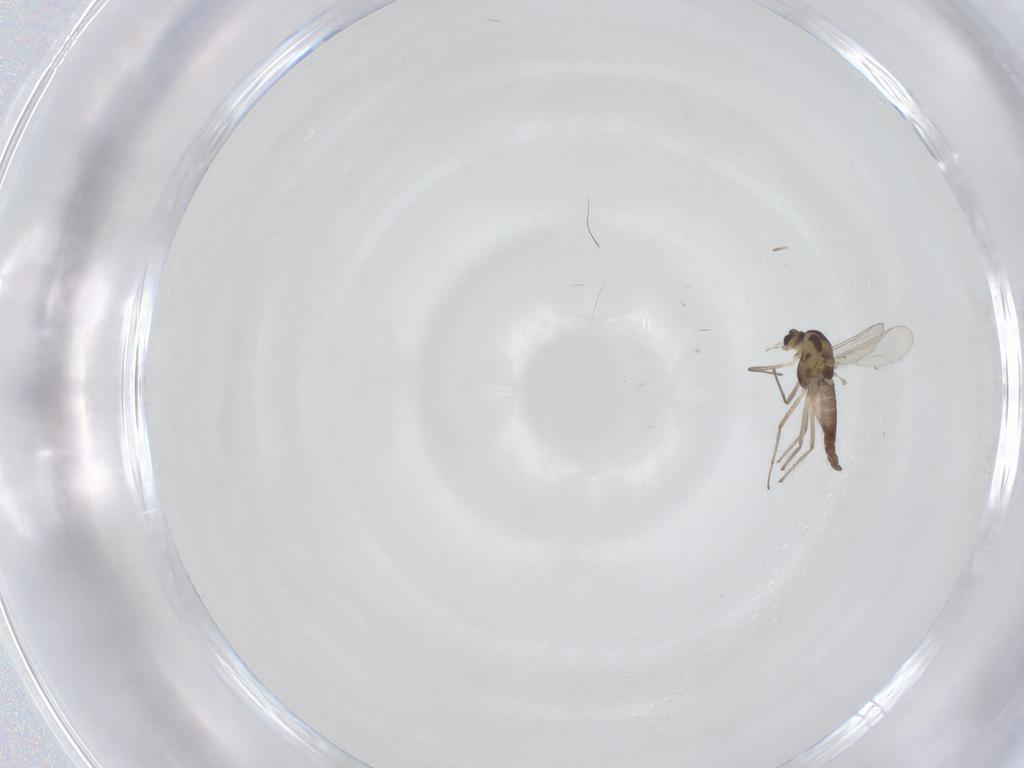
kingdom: Animalia
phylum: Arthropoda
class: Insecta
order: Diptera
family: Chironomidae
